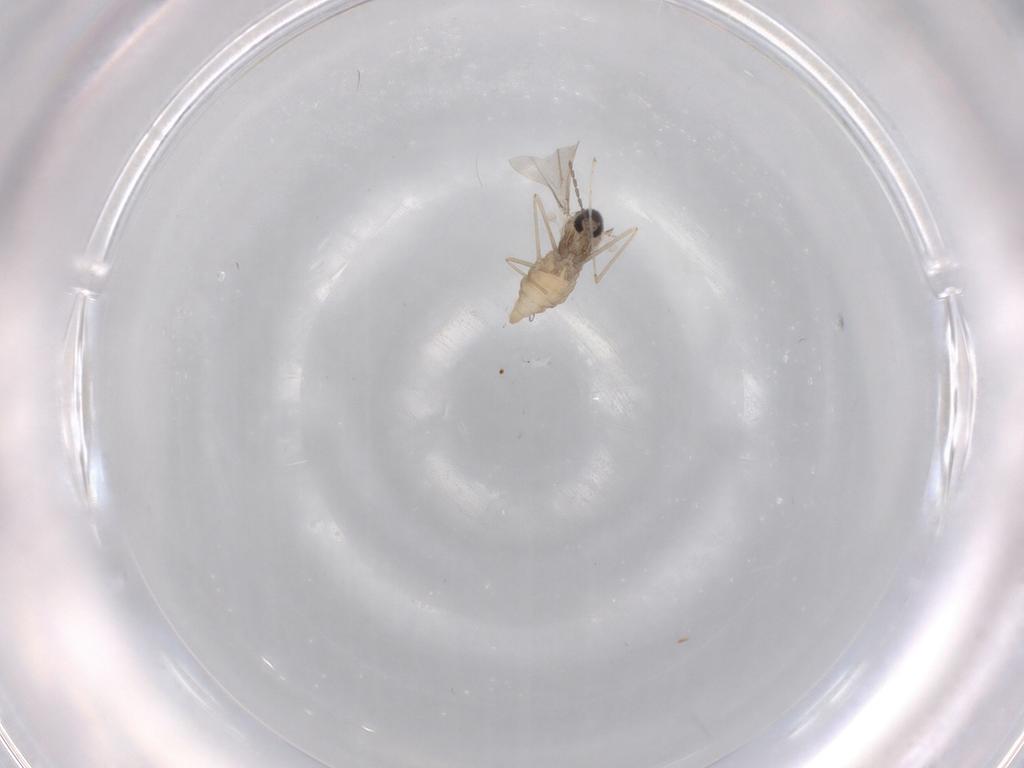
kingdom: Animalia
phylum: Arthropoda
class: Insecta
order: Diptera
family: Cecidomyiidae
